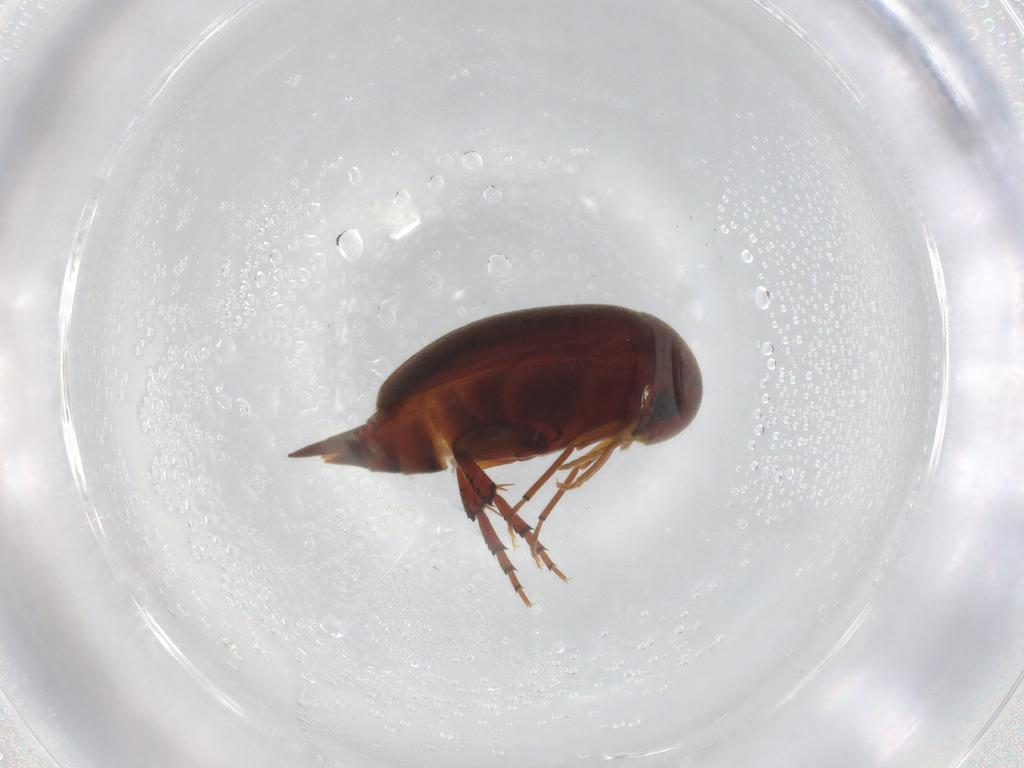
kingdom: Animalia
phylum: Arthropoda
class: Insecta
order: Coleoptera
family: Mordellidae
